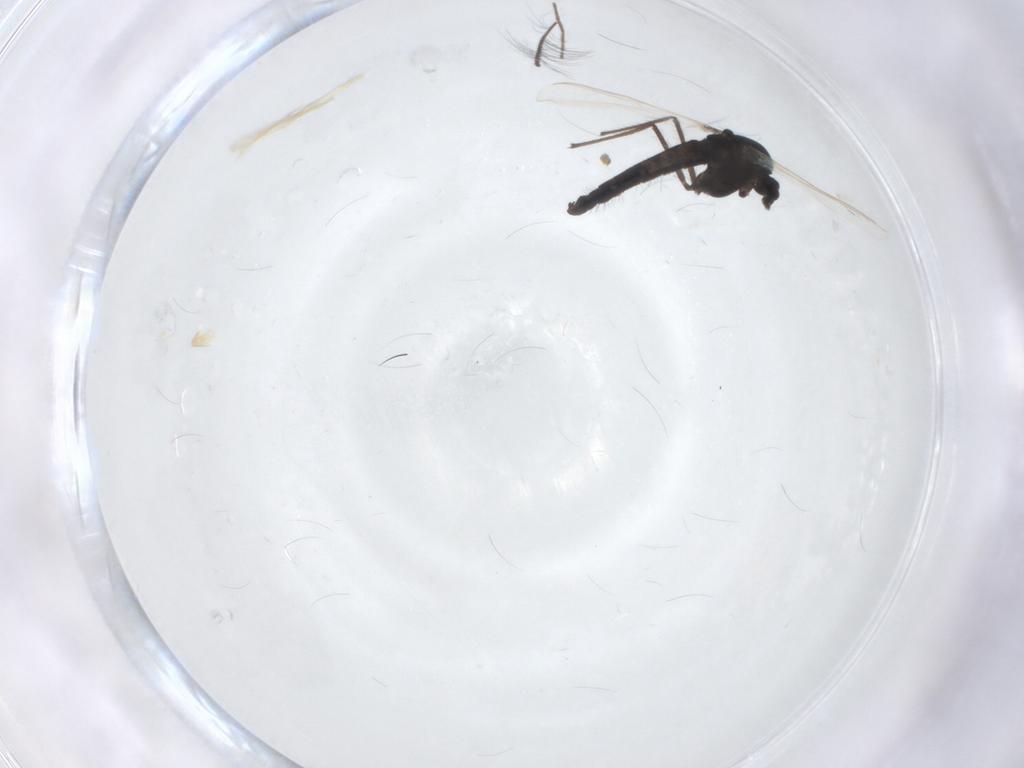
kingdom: Animalia
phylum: Arthropoda
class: Insecta
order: Diptera
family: Chironomidae
